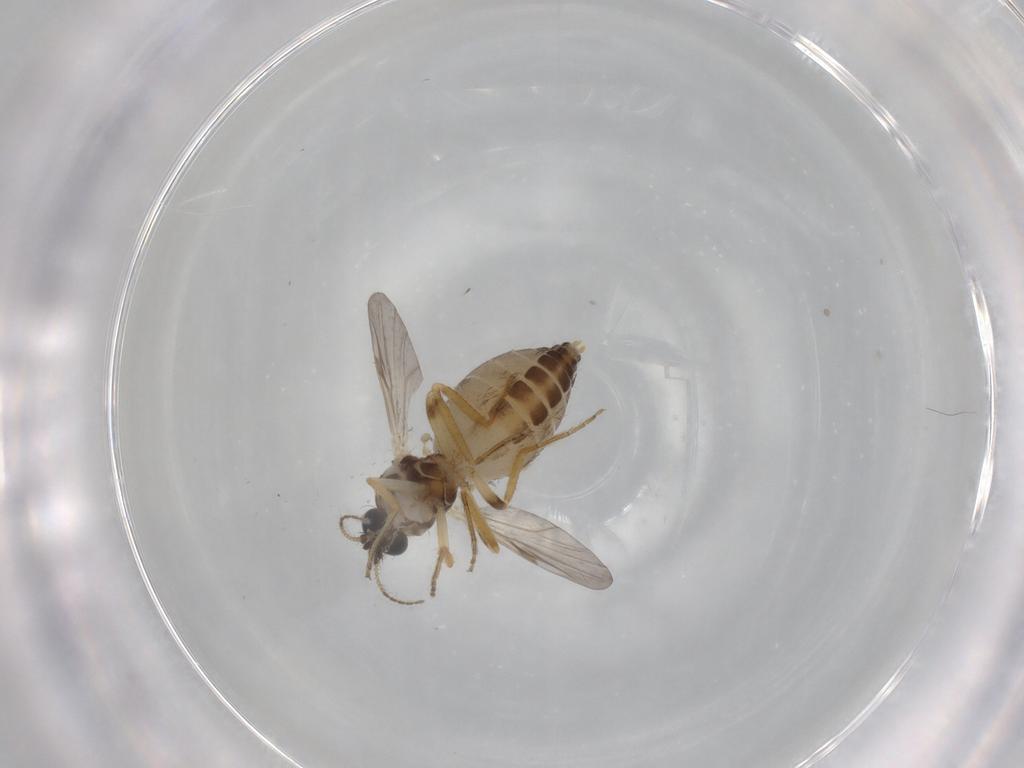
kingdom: Animalia
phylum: Arthropoda
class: Insecta
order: Diptera
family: Ceratopogonidae
